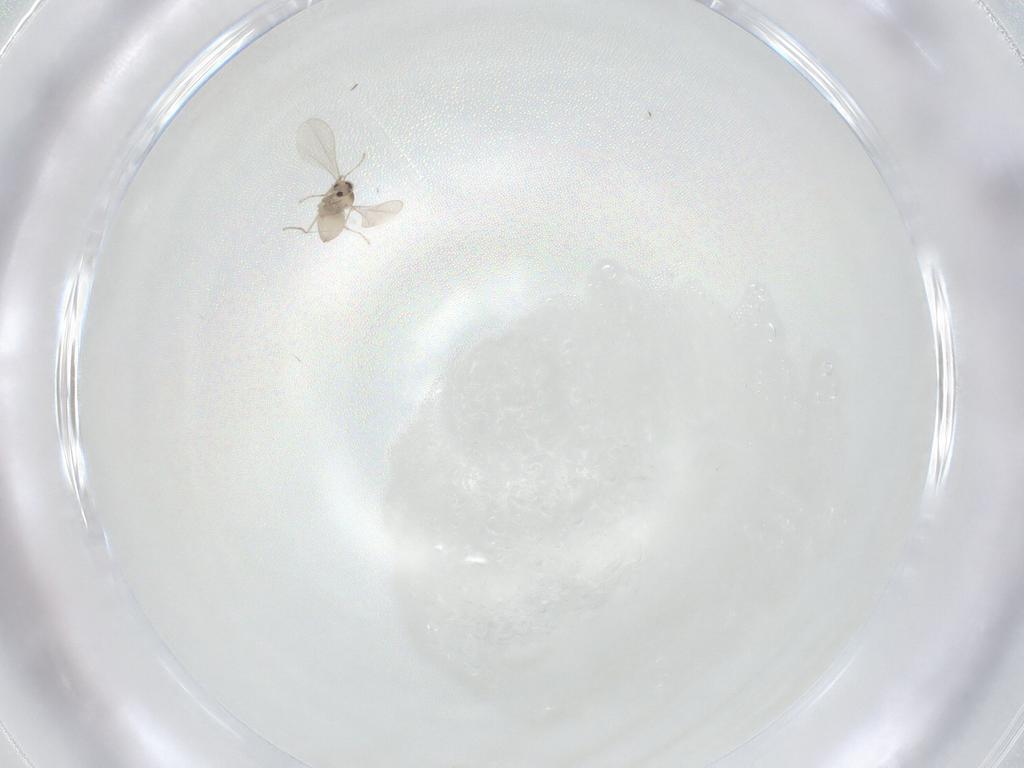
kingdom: Animalia
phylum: Arthropoda
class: Insecta
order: Diptera
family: Cecidomyiidae
